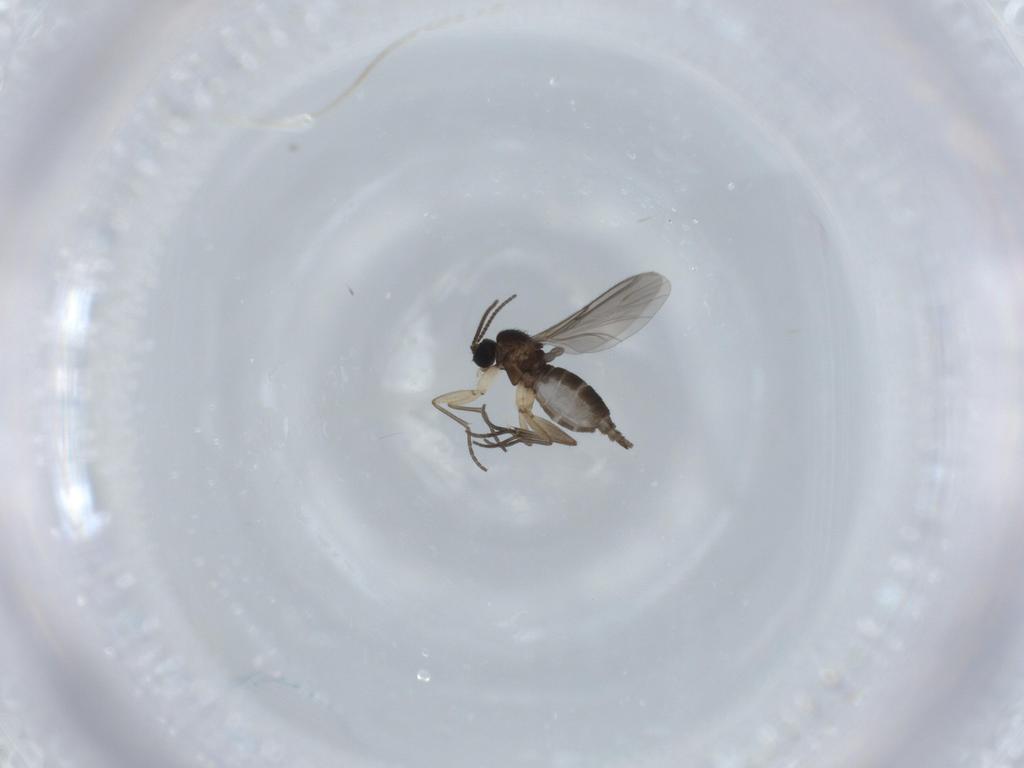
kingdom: Animalia
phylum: Arthropoda
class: Insecta
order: Diptera
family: Sciaridae
